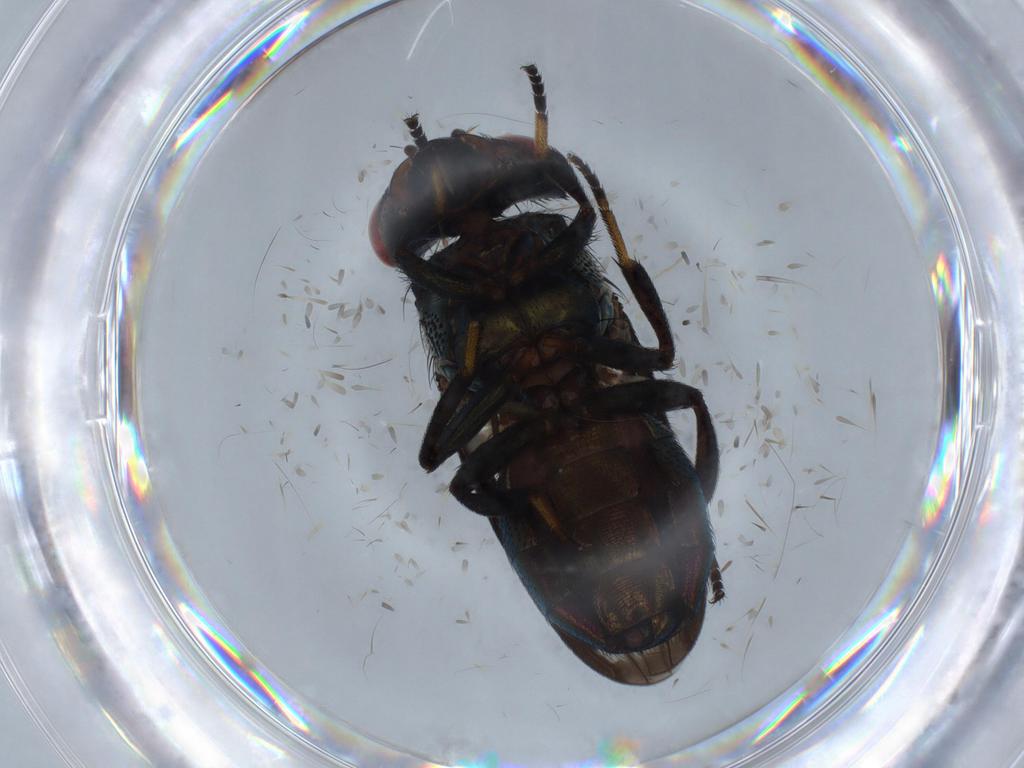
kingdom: Animalia
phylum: Arthropoda
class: Insecta
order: Diptera
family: Sciaridae
